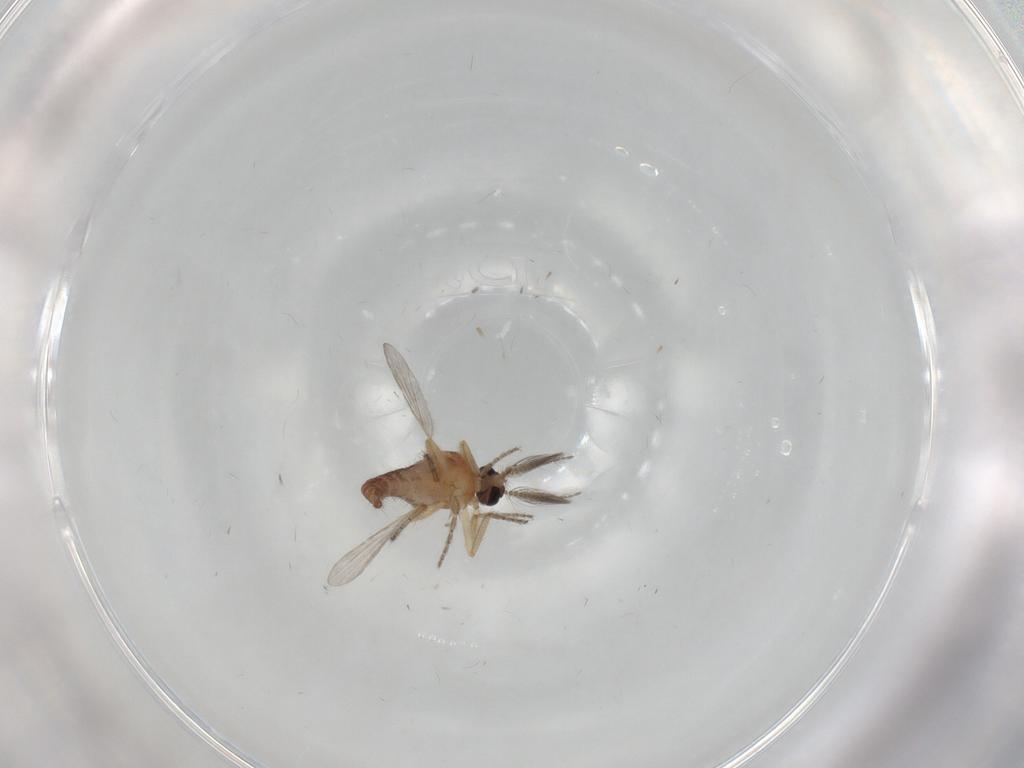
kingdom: Animalia
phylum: Arthropoda
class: Insecta
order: Diptera
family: Ceratopogonidae
